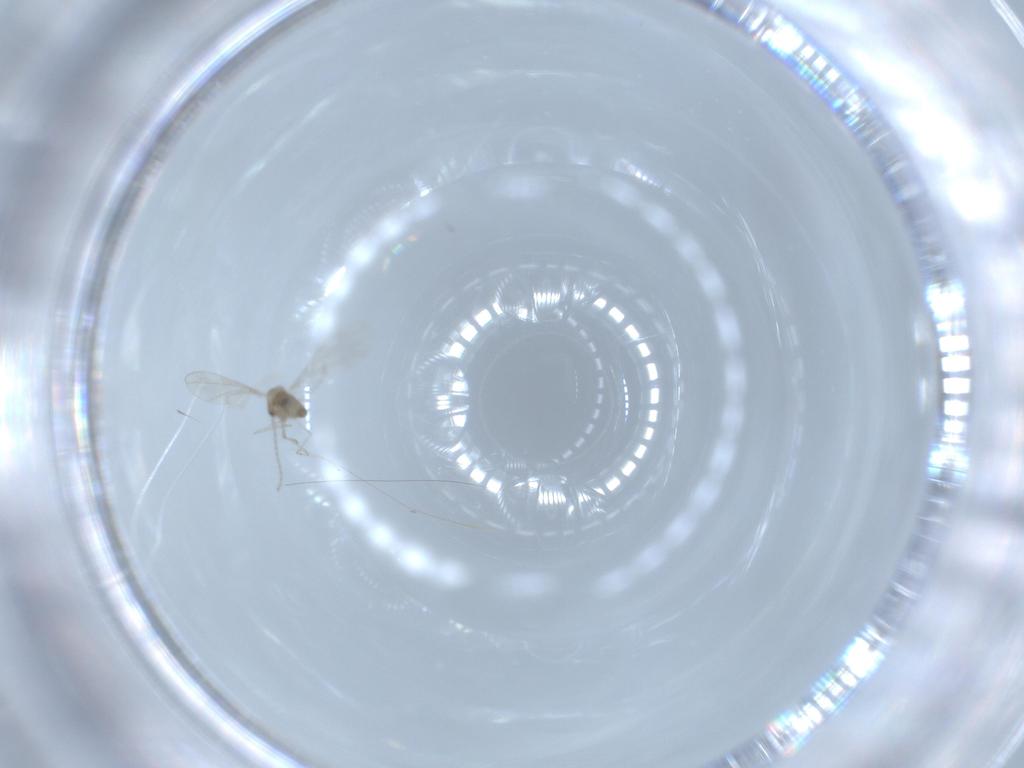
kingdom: Animalia
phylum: Arthropoda
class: Insecta
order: Diptera
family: Cecidomyiidae
